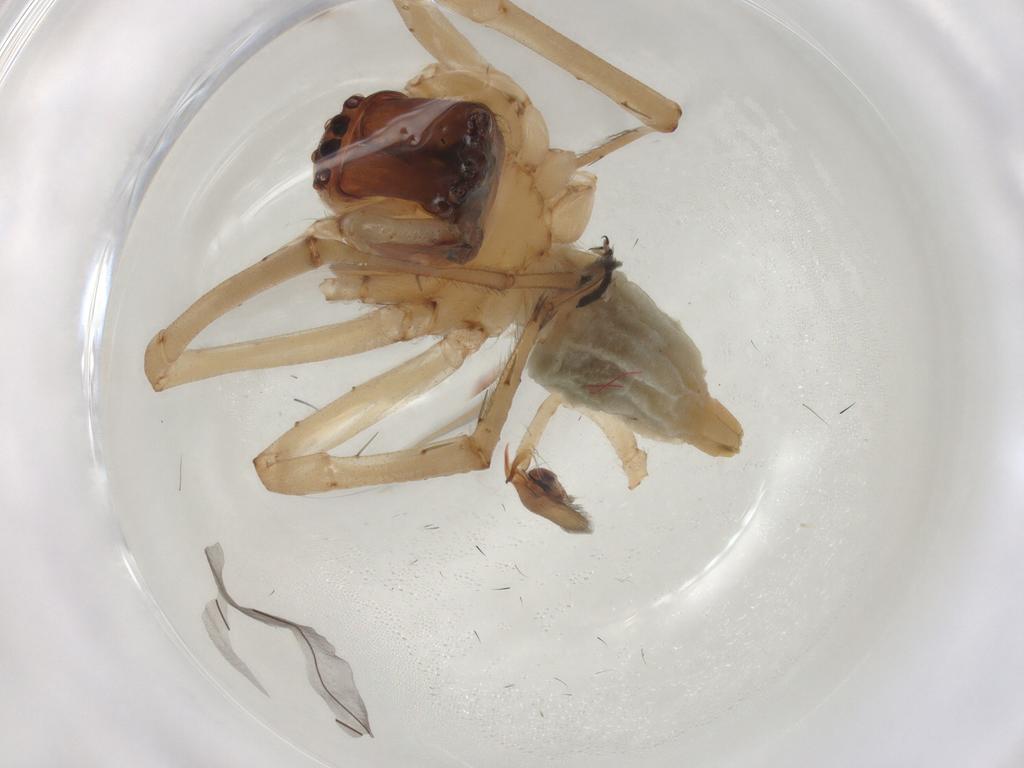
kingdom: Animalia
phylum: Arthropoda
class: Arachnida
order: Araneae
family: Cheiracanthiidae
